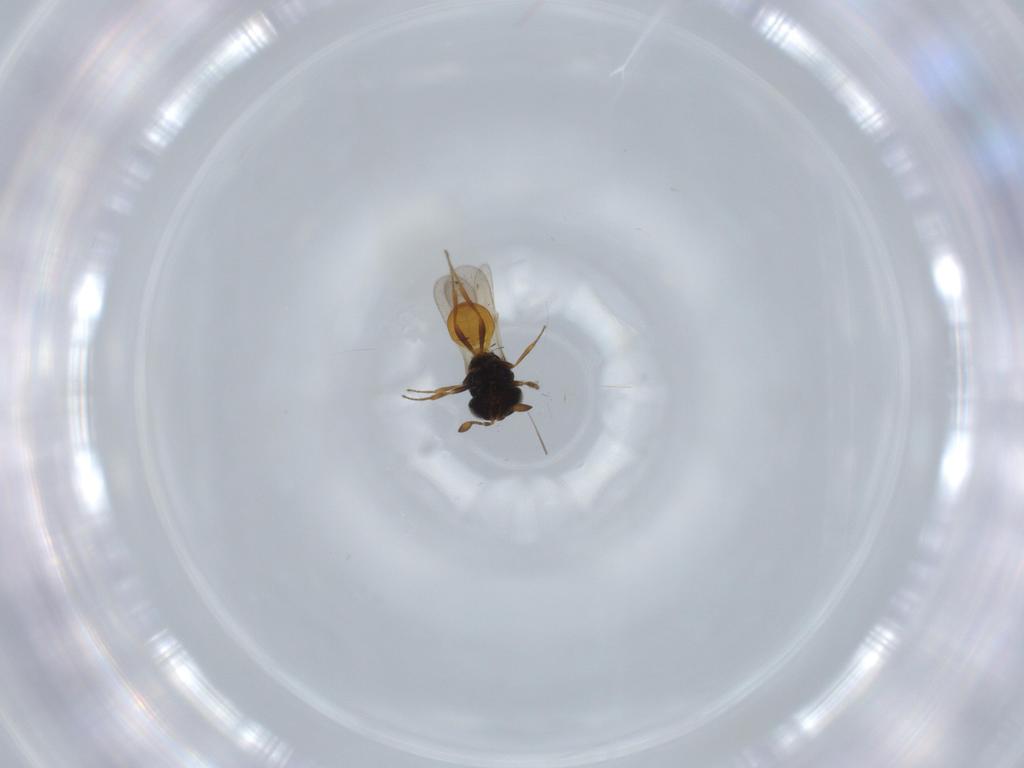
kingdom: Animalia
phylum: Arthropoda
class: Insecta
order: Hymenoptera
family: Scelionidae
